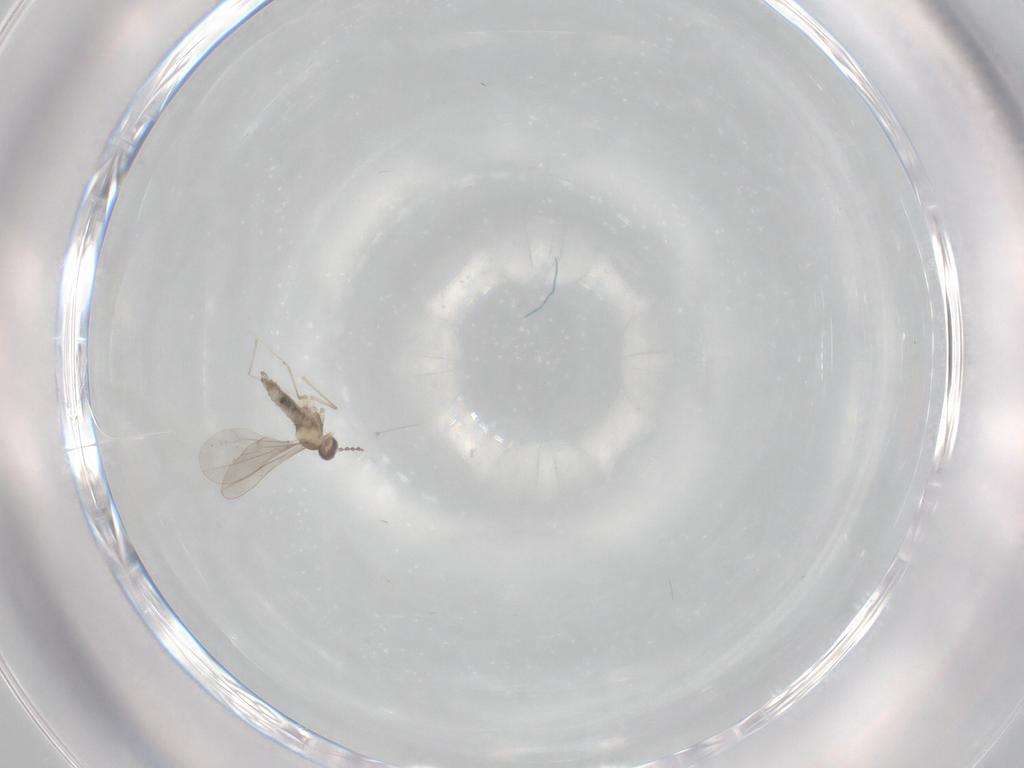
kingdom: Animalia
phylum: Arthropoda
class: Insecta
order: Diptera
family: Cecidomyiidae
